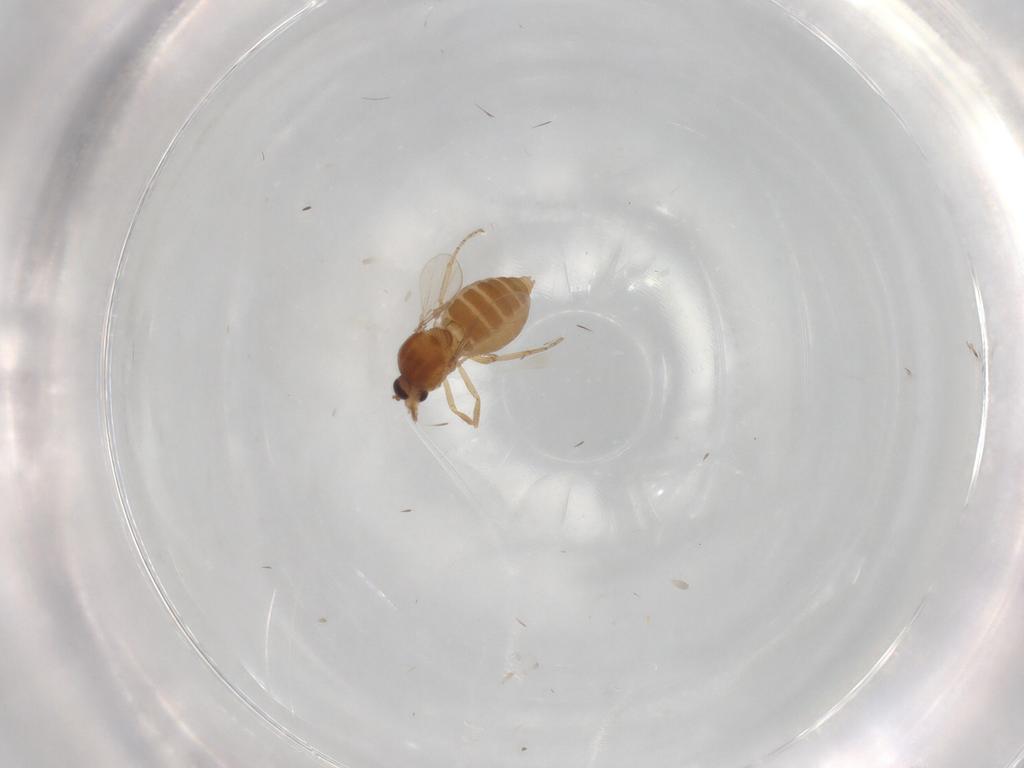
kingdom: Animalia
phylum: Arthropoda
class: Insecta
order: Diptera
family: Ceratopogonidae
